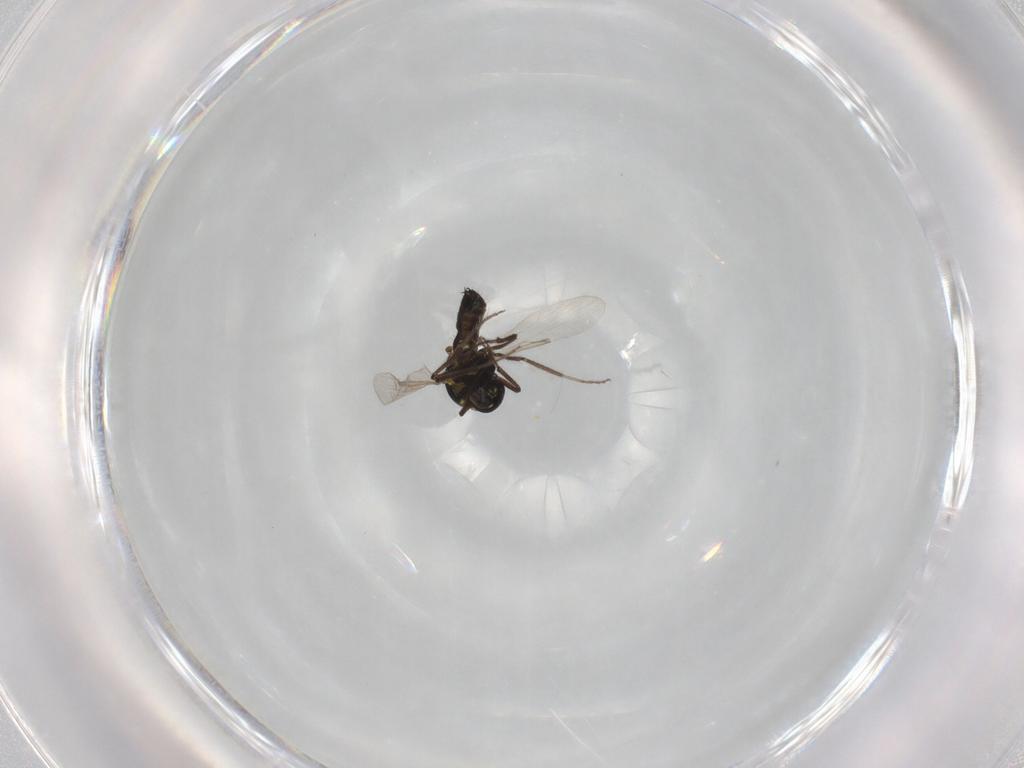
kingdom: Animalia
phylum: Arthropoda
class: Insecta
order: Diptera
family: Ceratopogonidae
